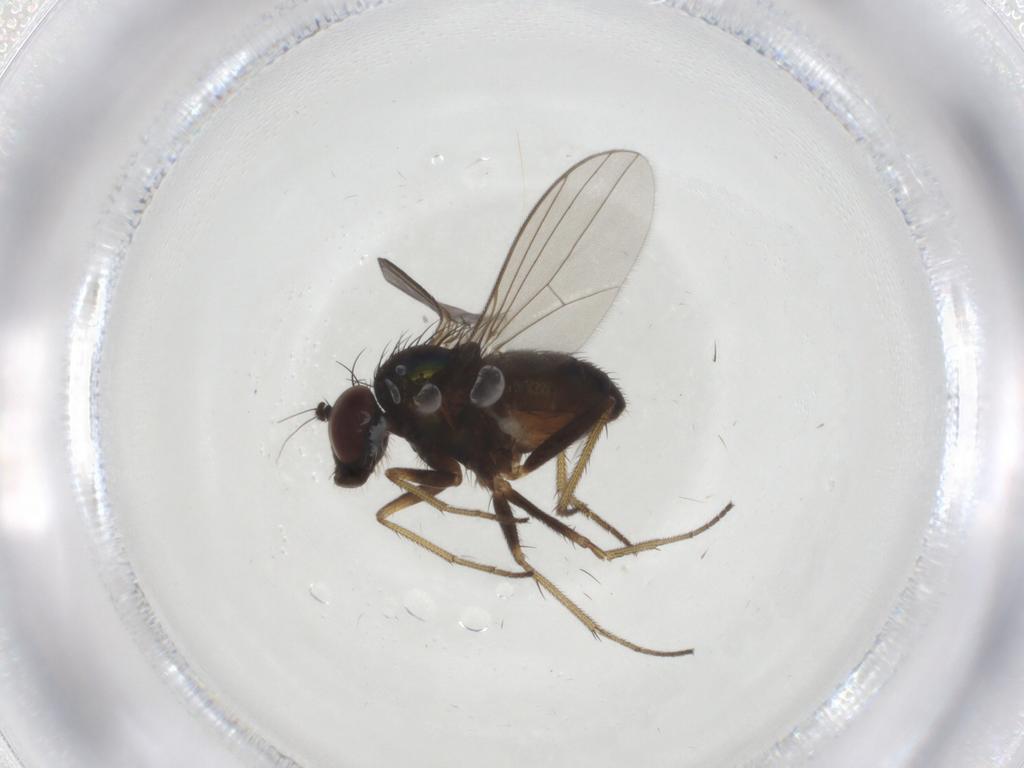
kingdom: Animalia
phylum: Arthropoda
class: Insecta
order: Diptera
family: Dolichopodidae
